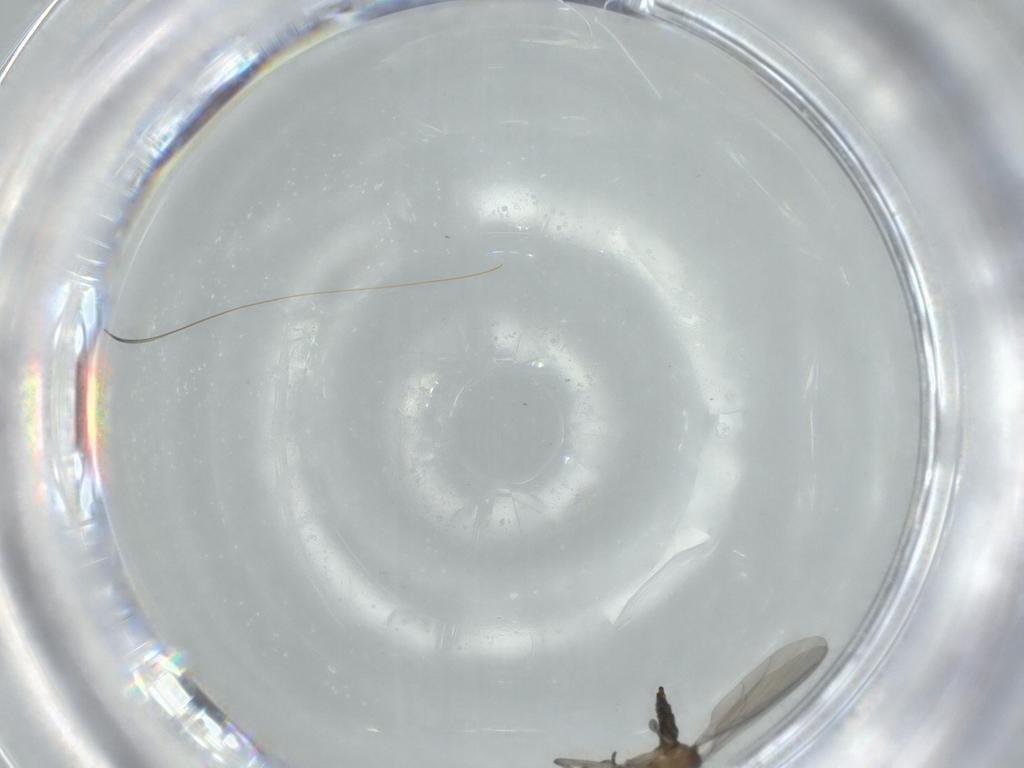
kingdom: Animalia
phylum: Arthropoda
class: Insecta
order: Diptera
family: Sciaridae
